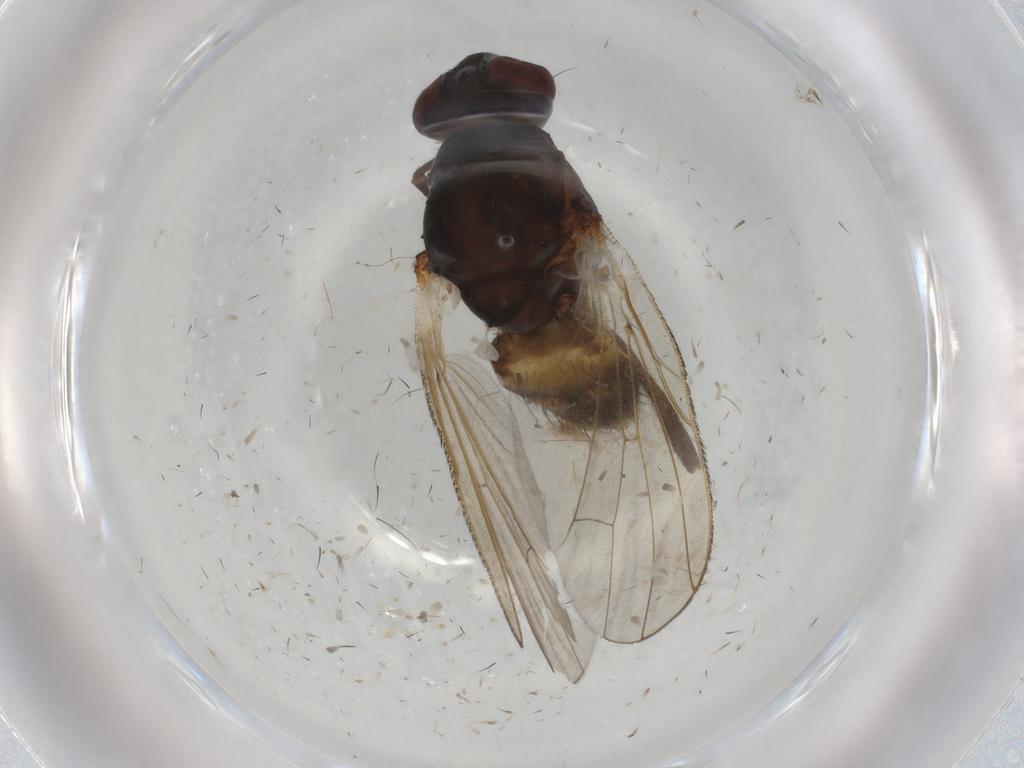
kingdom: Animalia
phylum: Arthropoda
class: Insecta
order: Diptera
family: Anthomyiidae
